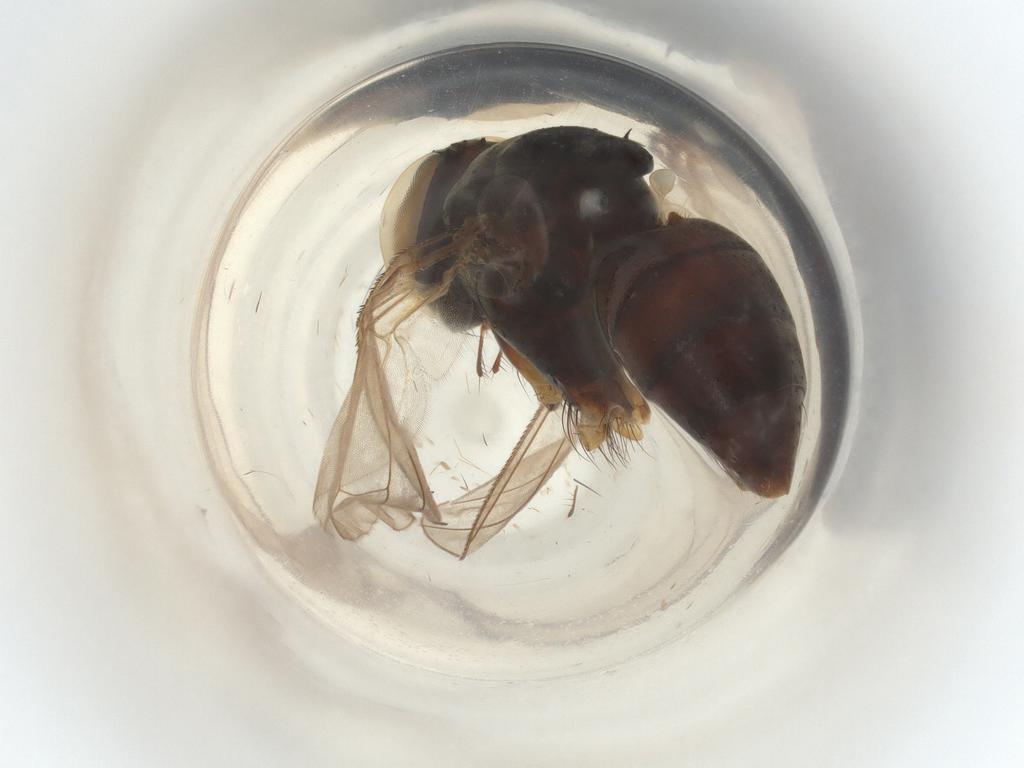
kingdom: Animalia
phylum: Arthropoda
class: Insecta
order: Diptera
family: Muscidae
